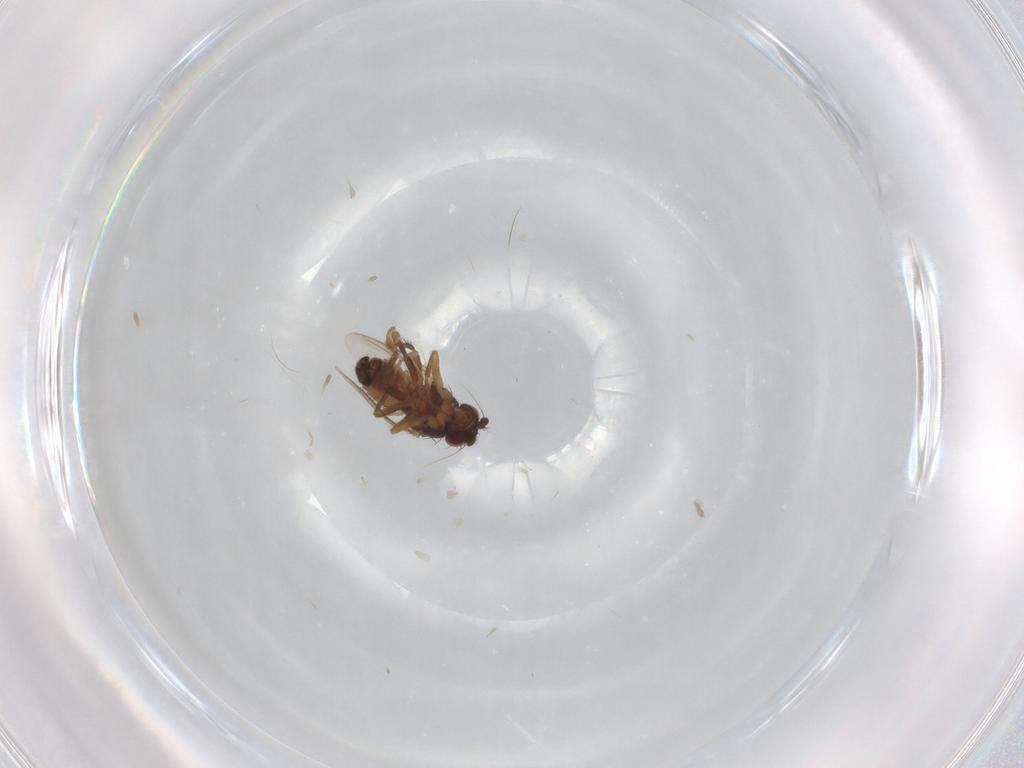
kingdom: Animalia
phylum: Arthropoda
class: Insecta
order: Diptera
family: Sphaeroceridae
